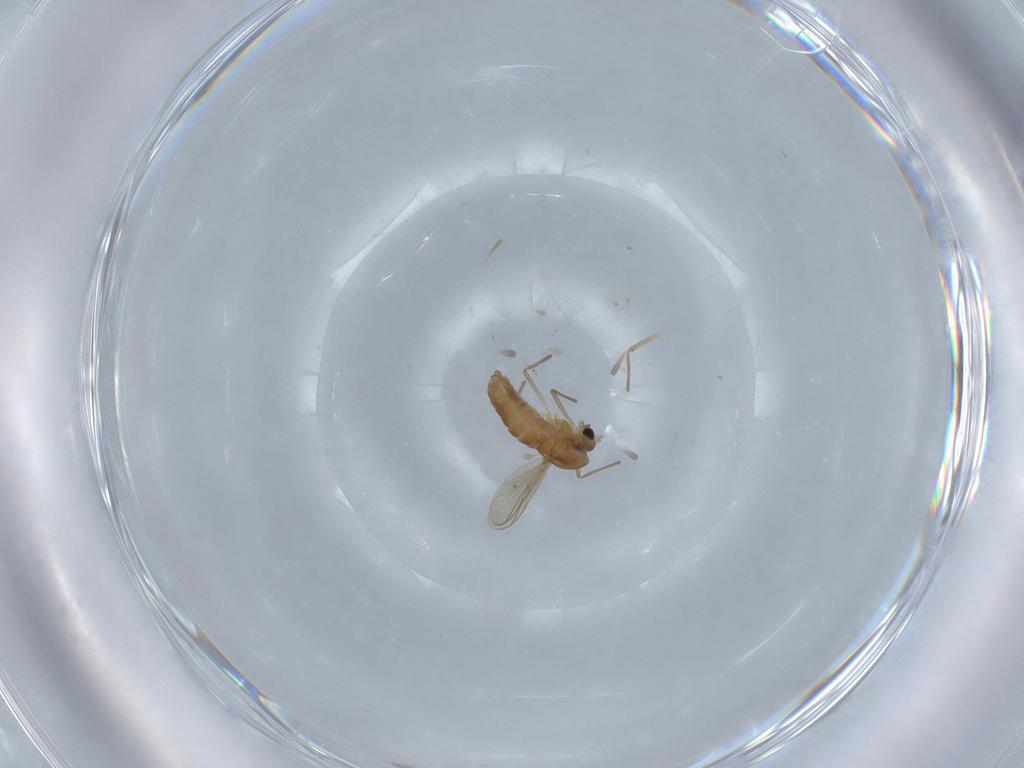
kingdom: Animalia
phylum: Arthropoda
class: Insecta
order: Diptera
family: Chironomidae
